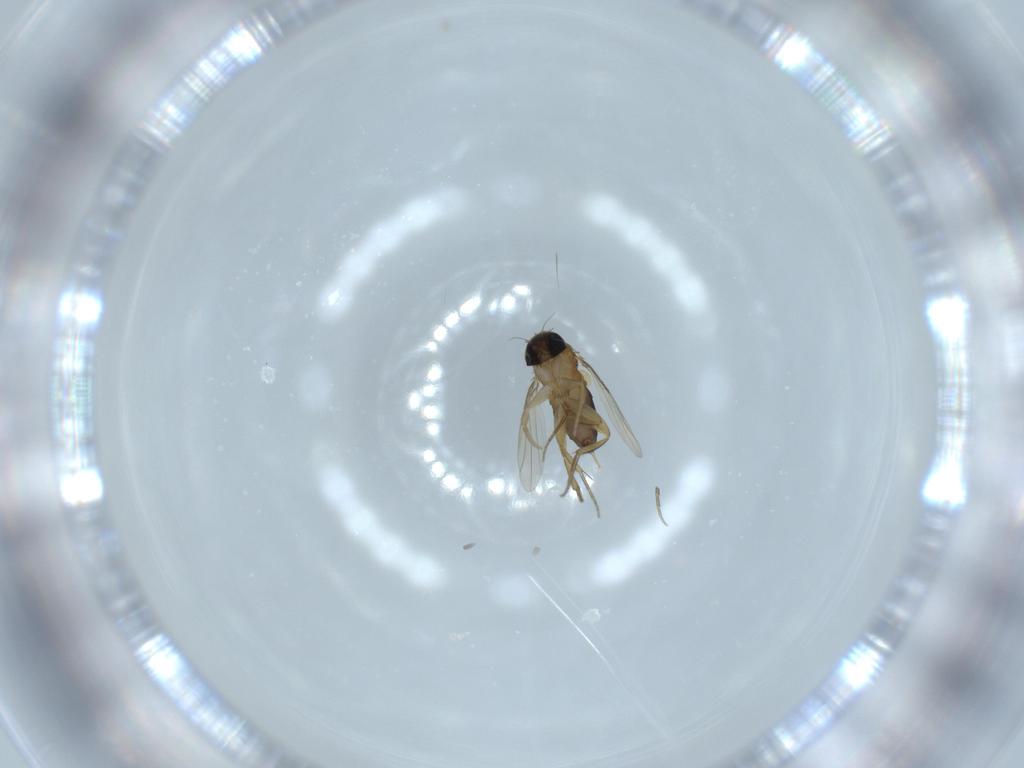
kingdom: Animalia
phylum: Arthropoda
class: Insecta
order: Diptera
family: Phoridae
